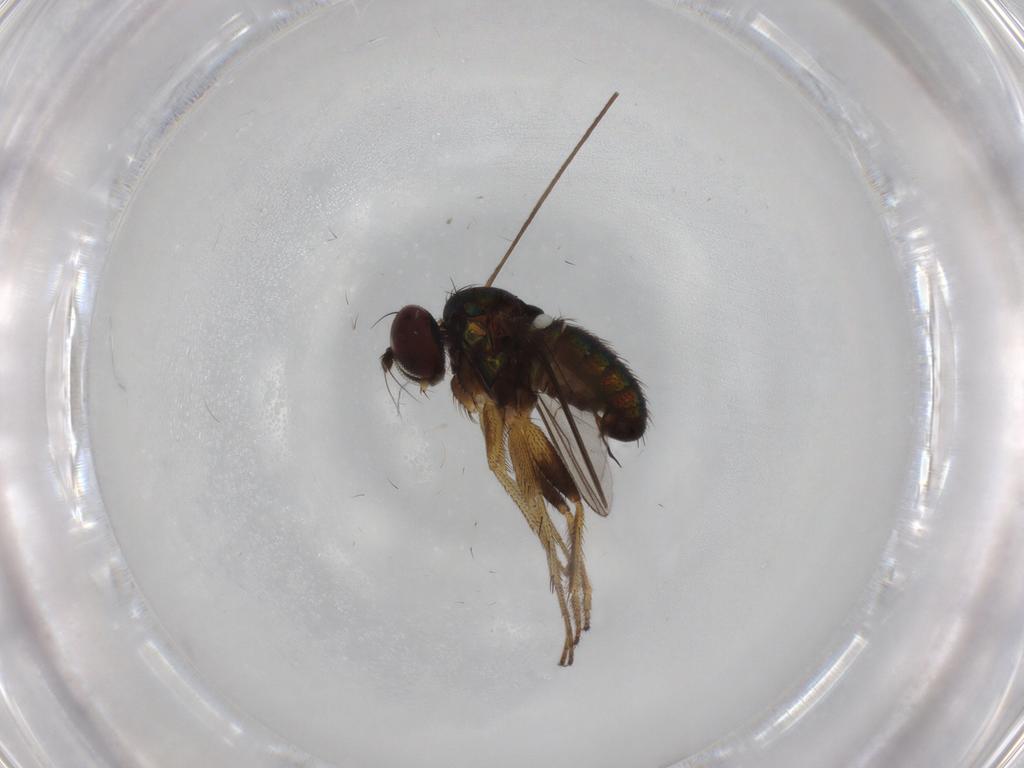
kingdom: Animalia
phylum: Arthropoda
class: Insecta
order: Diptera
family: Dolichopodidae
